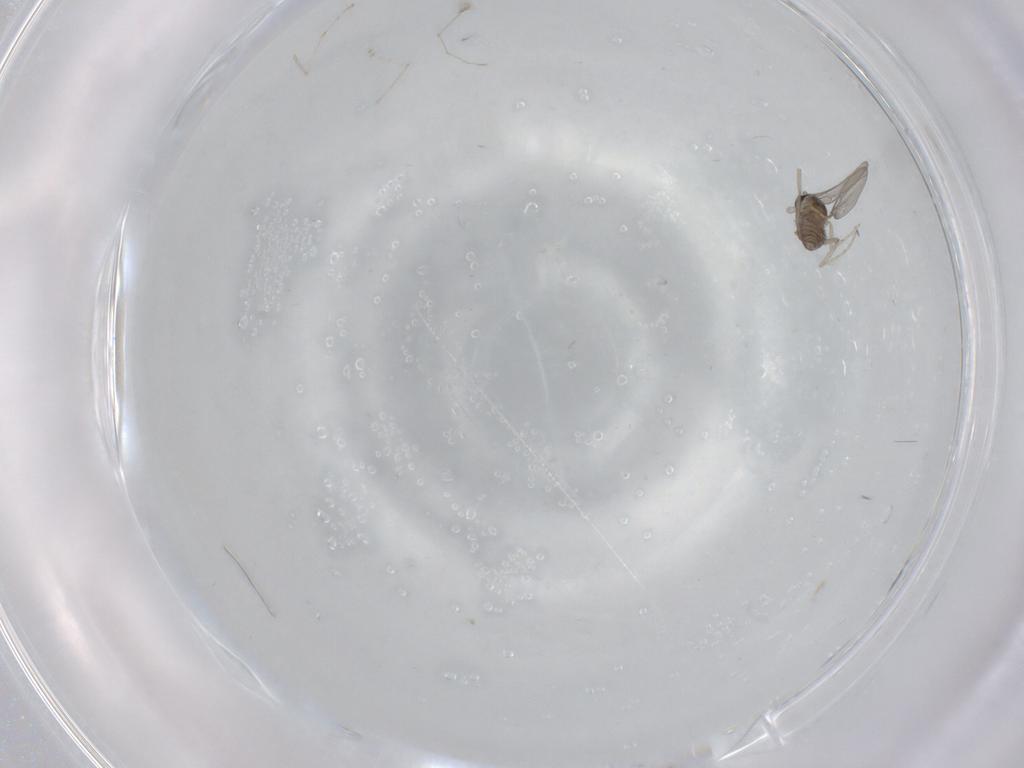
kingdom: Animalia
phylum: Arthropoda
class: Insecta
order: Diptera
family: Cecidomyiidae
